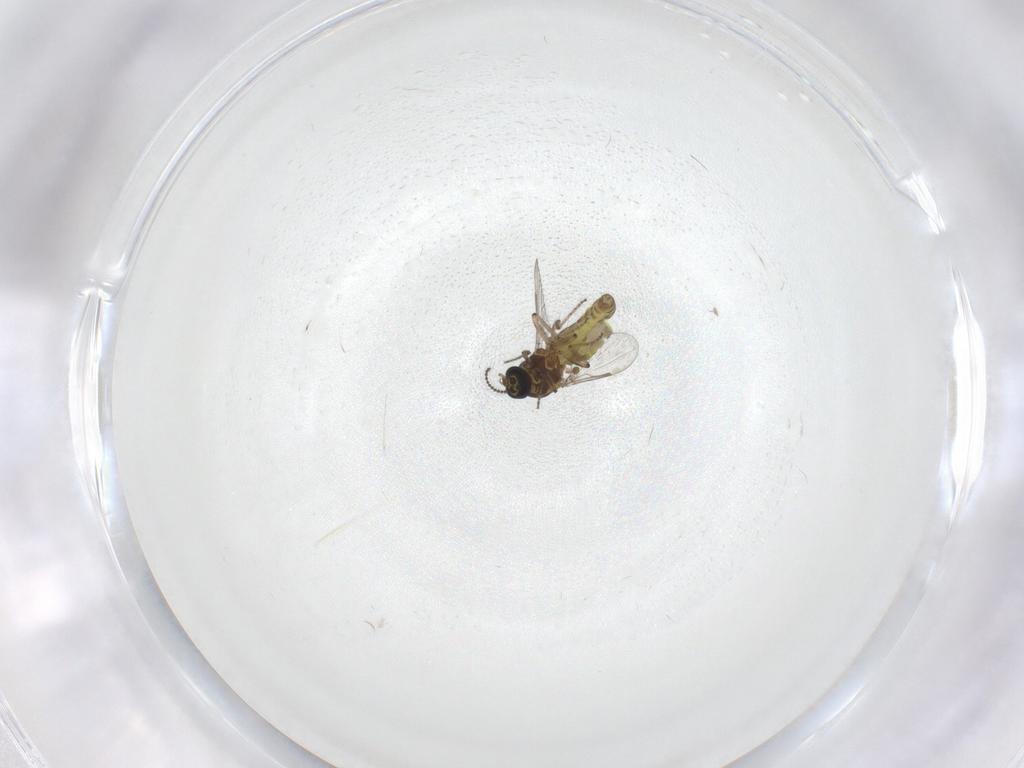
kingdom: Animalia
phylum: Arthropoda
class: Insecta
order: Diptera
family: Ceratopogonidae
